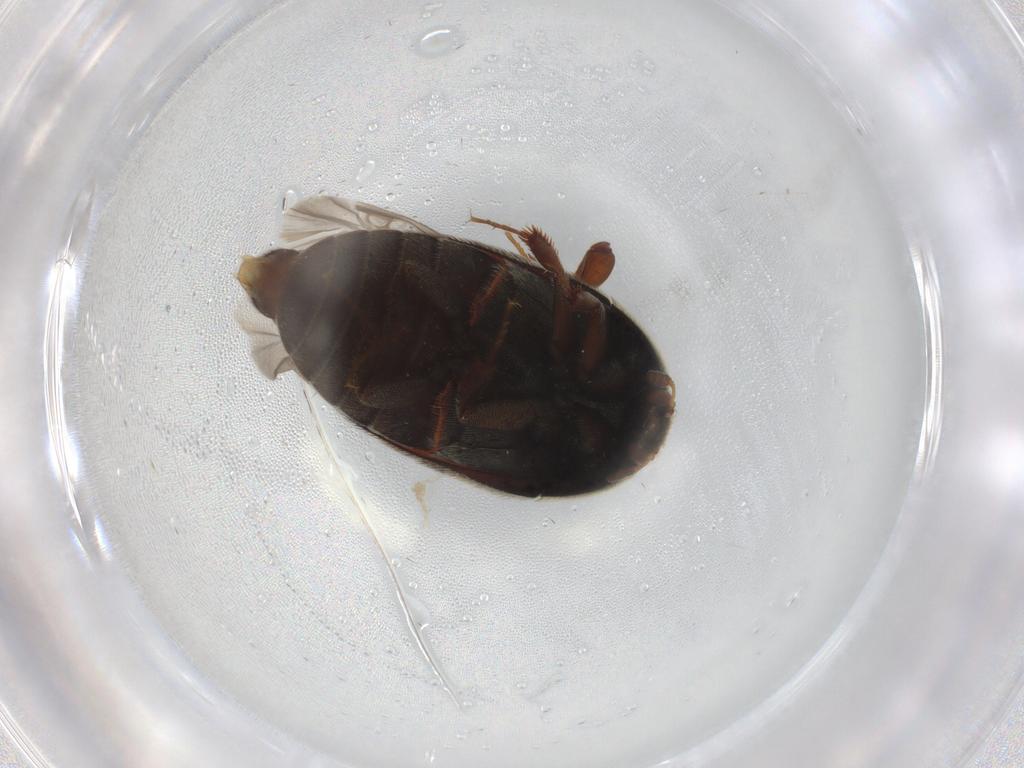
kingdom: Animalia
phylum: Arthropoda
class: Insecta
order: Coleoptera
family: Dermestidae
